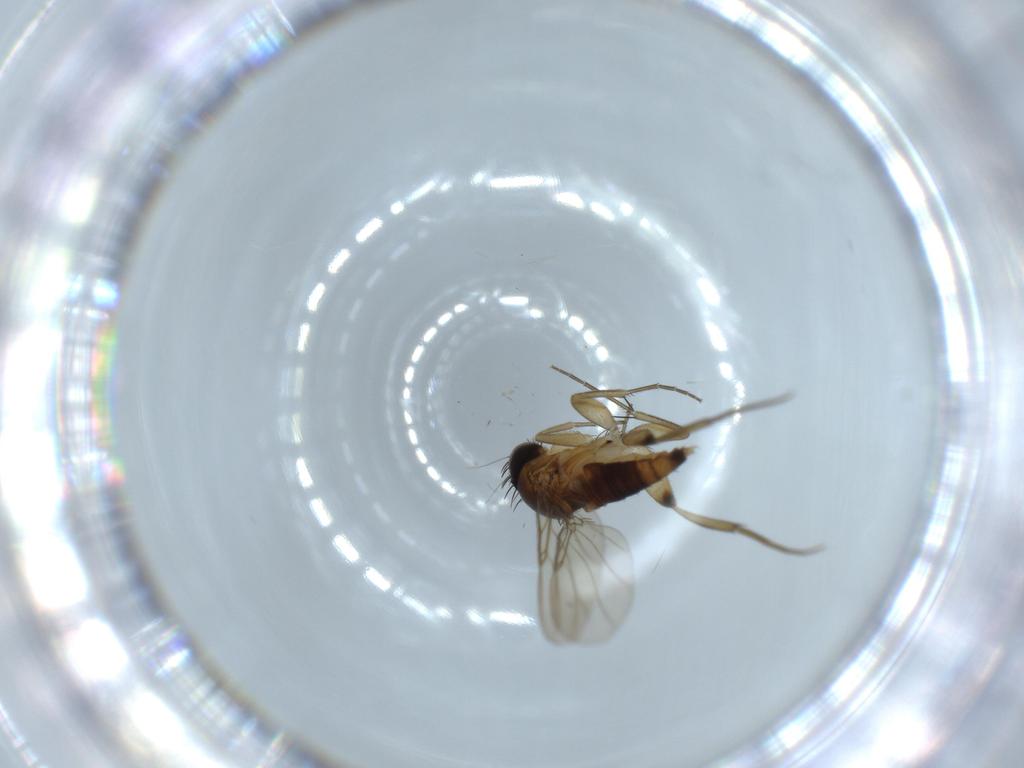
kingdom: Animalia
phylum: Arthropoda
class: Insecta
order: Diptera
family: Phoridae
